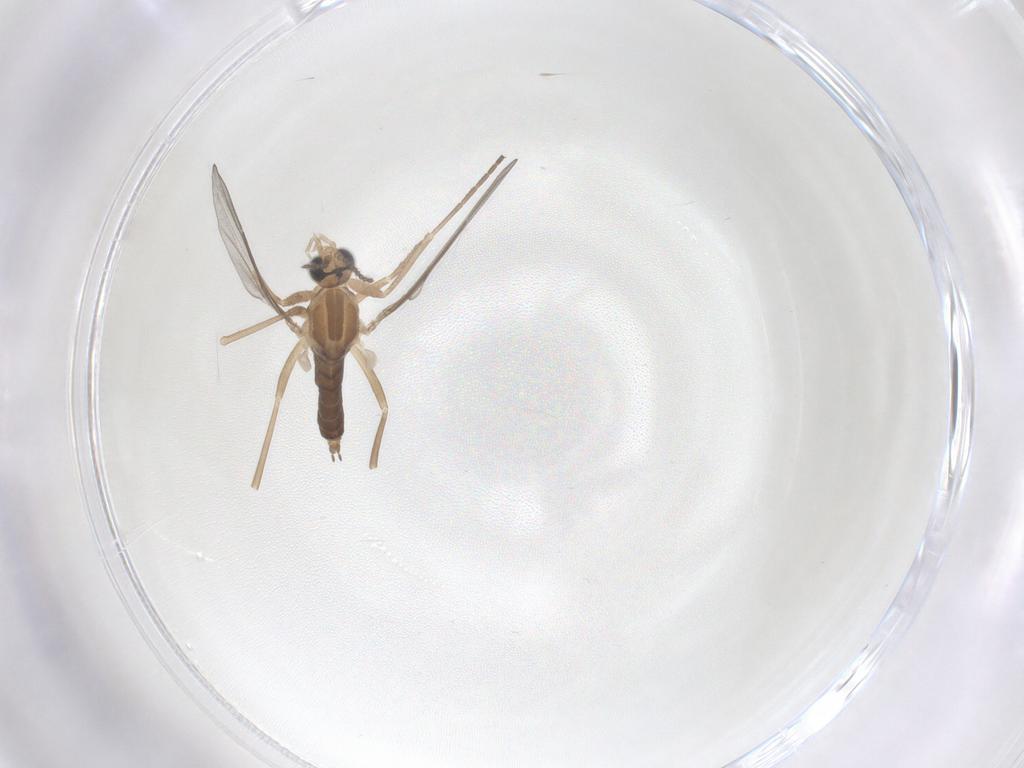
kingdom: Animalia
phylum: Arthropoda
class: Insecta
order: Diptera
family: Cecidomyiidae
